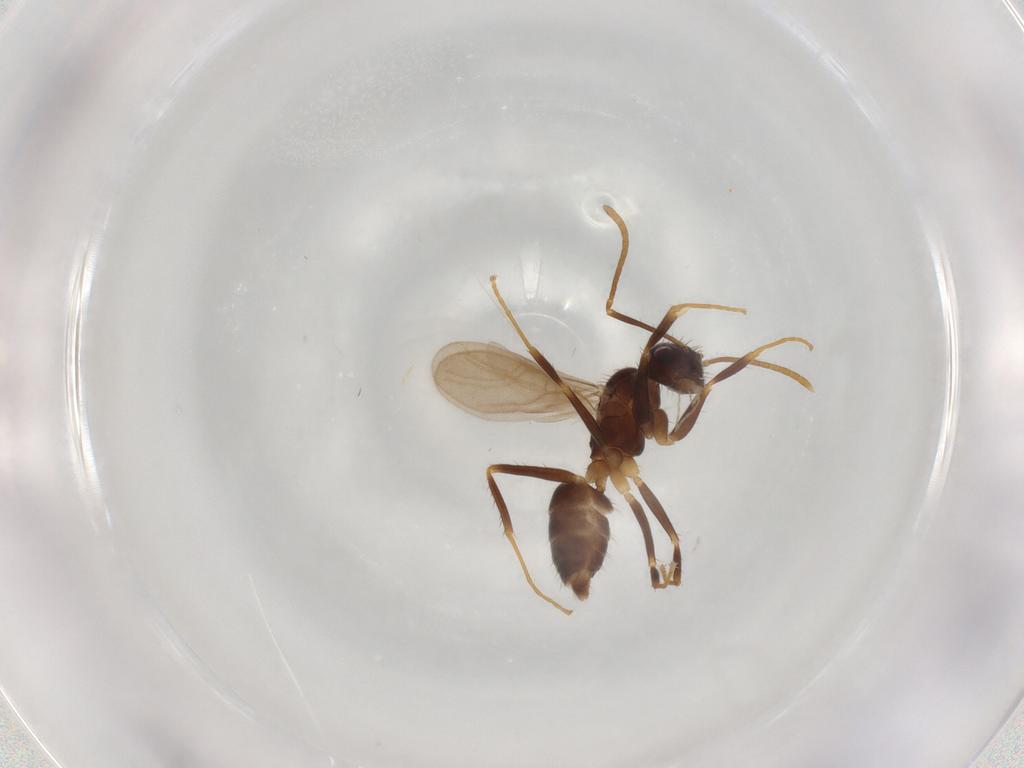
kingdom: Animalia
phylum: Arthropoda
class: Insecta
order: Hymenoptera
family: Formicidae
